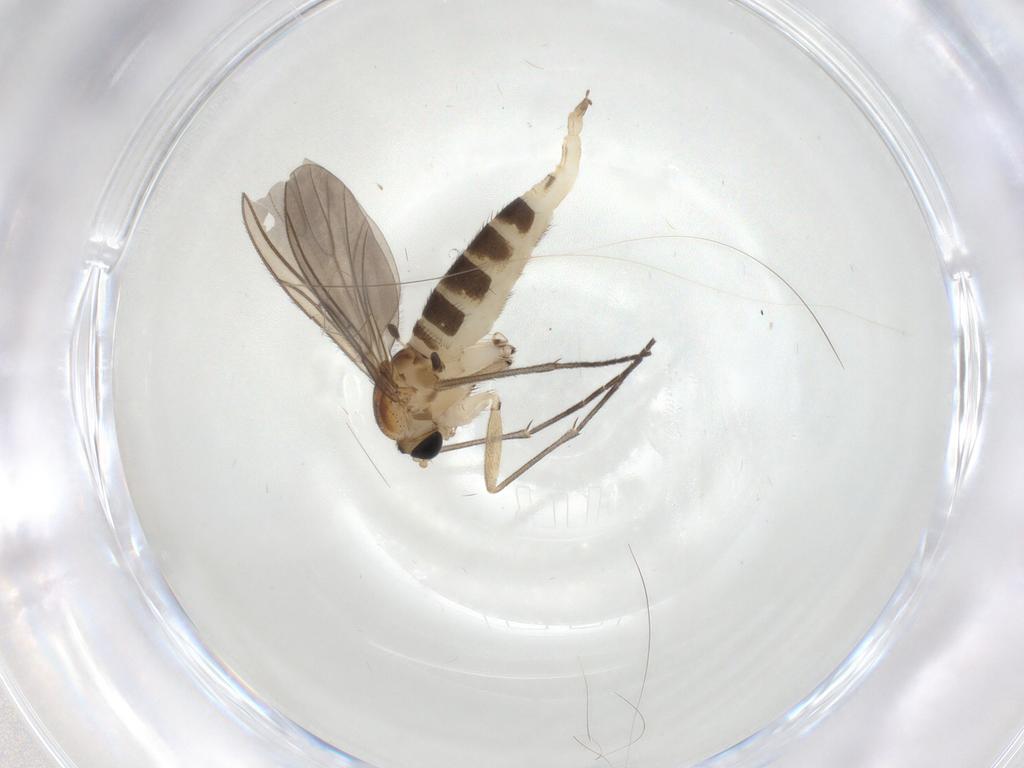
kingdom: Animalia
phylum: Arthropoda
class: Insecta
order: Diptera
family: Sciaridae
